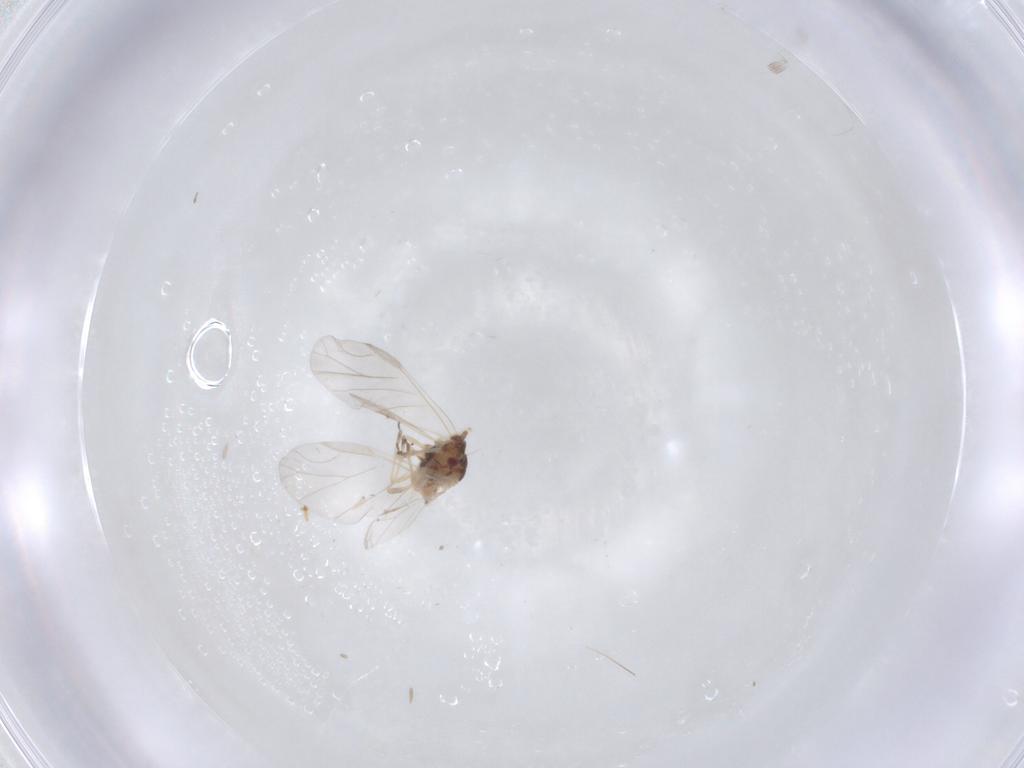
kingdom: Animalia
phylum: Arthropoda
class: Insecta
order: Hemiptera
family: Aphididae
